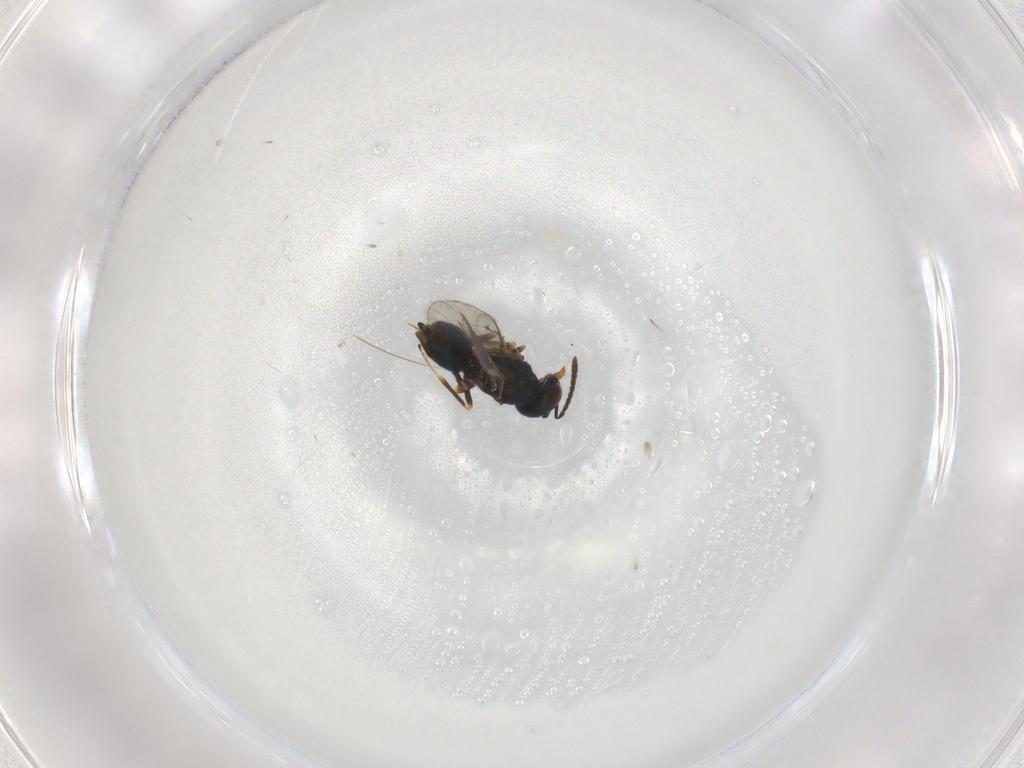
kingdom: Animalia
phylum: Arthropoda
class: Insecta
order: Hymenoptera
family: Pteromalidae
